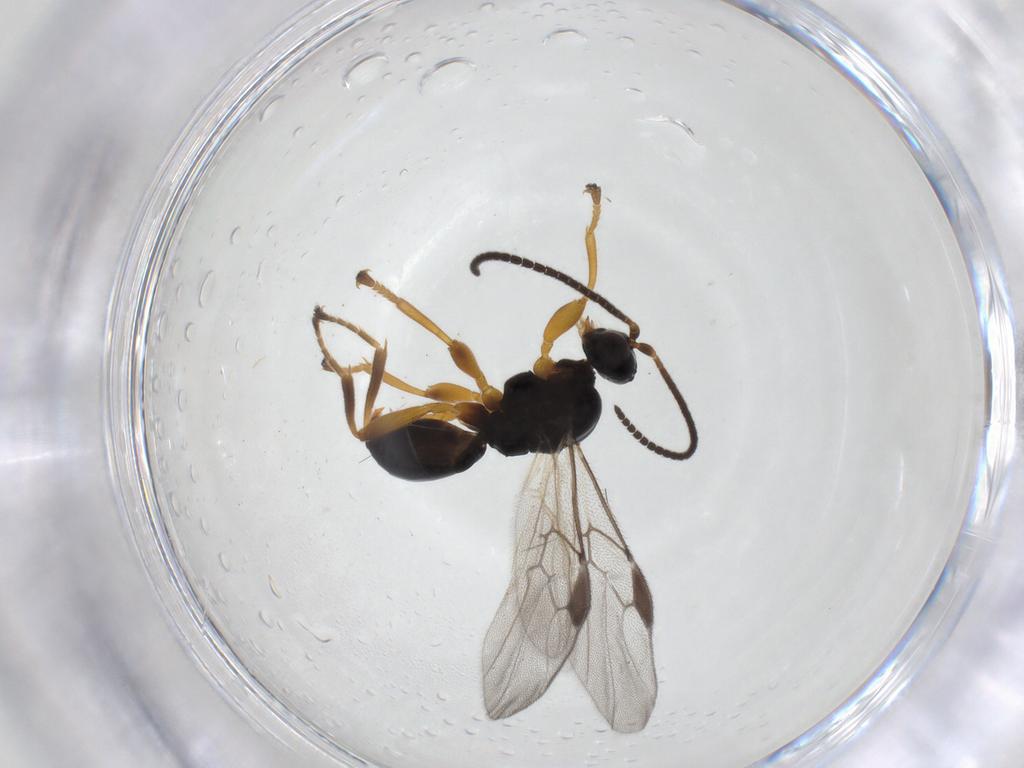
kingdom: Animalia
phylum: Arthropoda
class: Insecta
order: Hymenoptera
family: Braconidae
